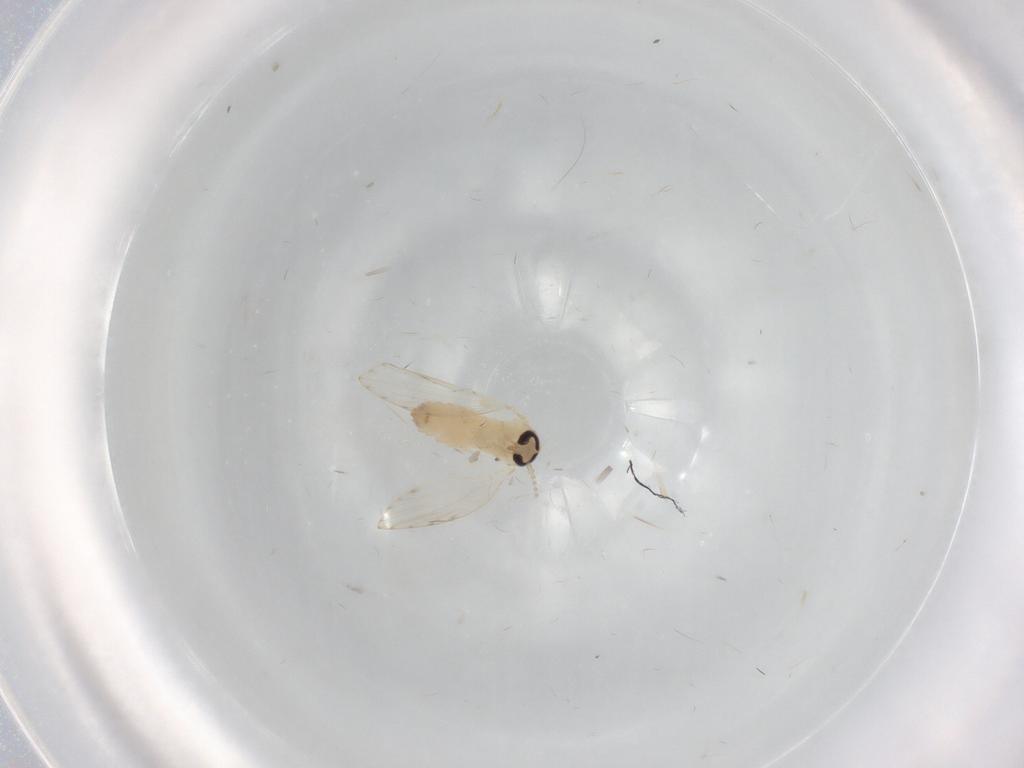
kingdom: Animalia
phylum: Arthropoda
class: Insecta
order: Diptera
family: Psychodidae
